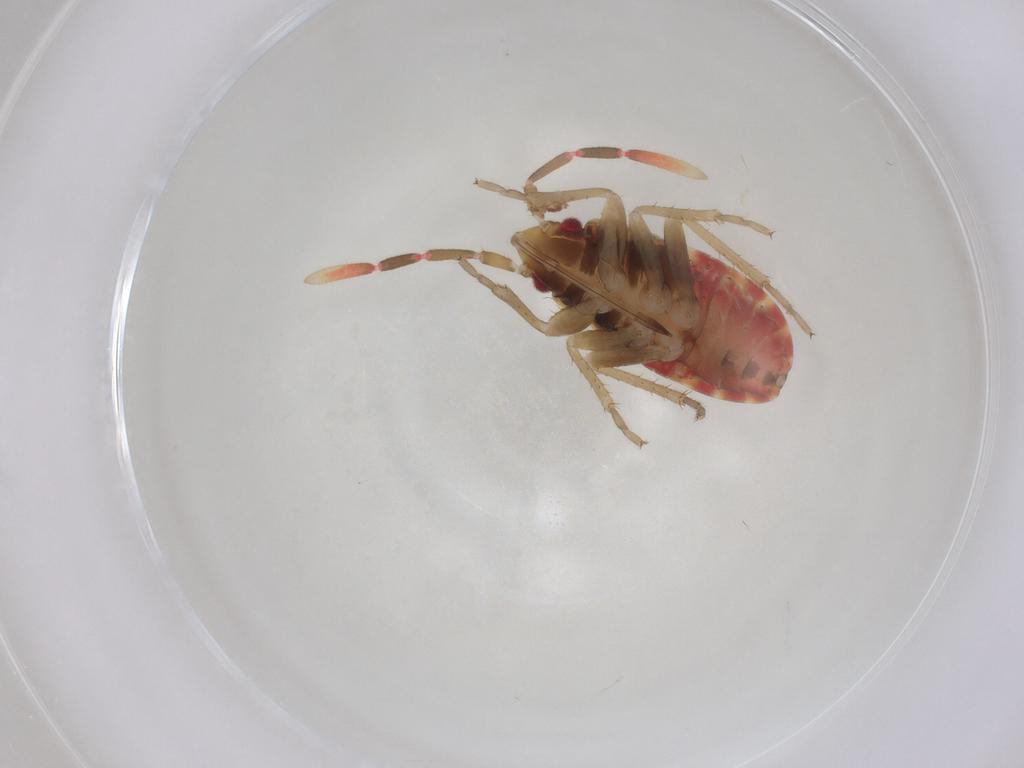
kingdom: Animalia
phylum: Arthropoda
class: Insecta
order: Hemiptera
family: Rhyparochromidae
